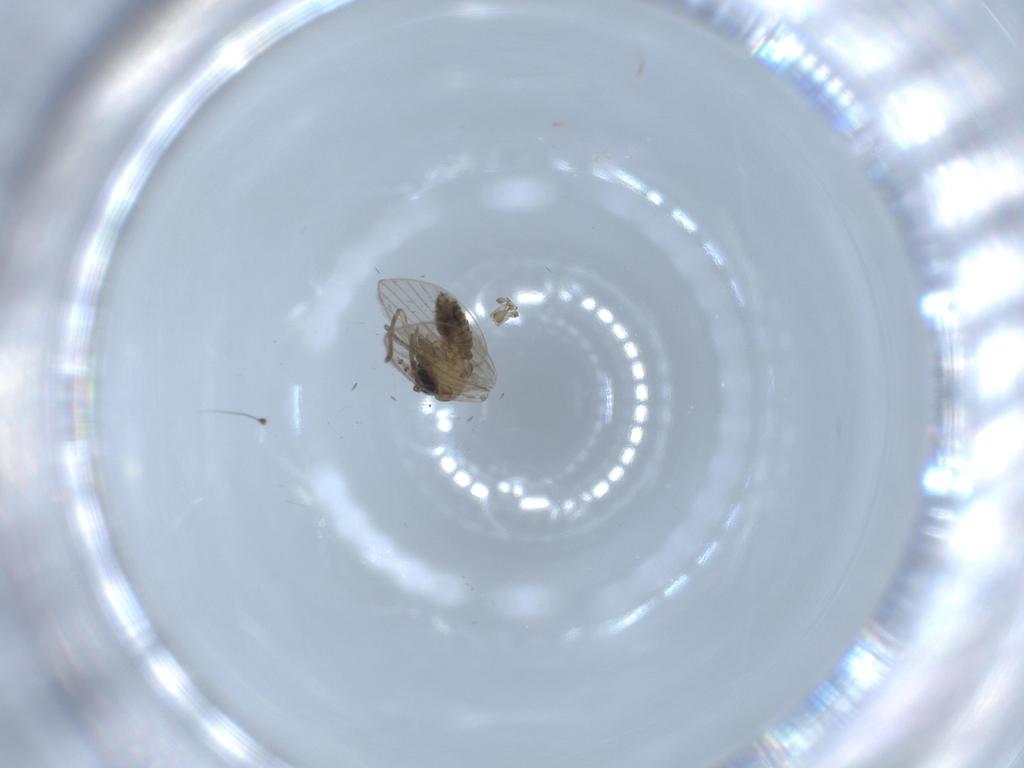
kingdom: Animalia
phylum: Arthropoda
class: Insecta
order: Diptera
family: Psychodidae
